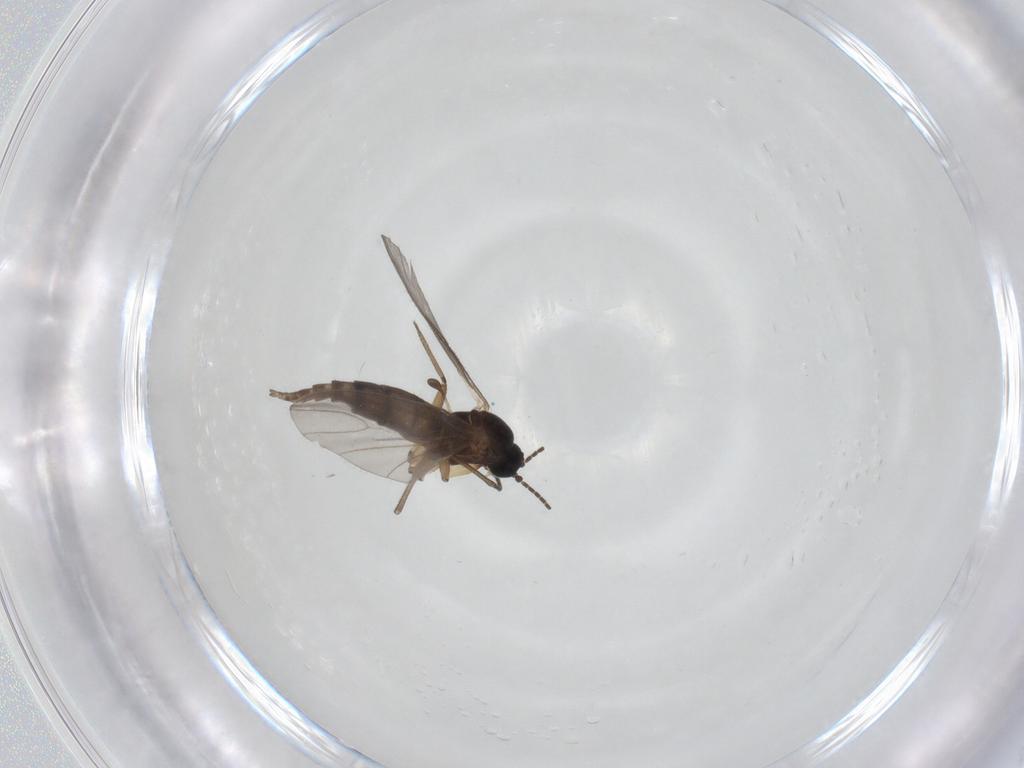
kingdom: Animalia
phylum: Arthropoda
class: Insecta
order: Diptera
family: Sciaridae
